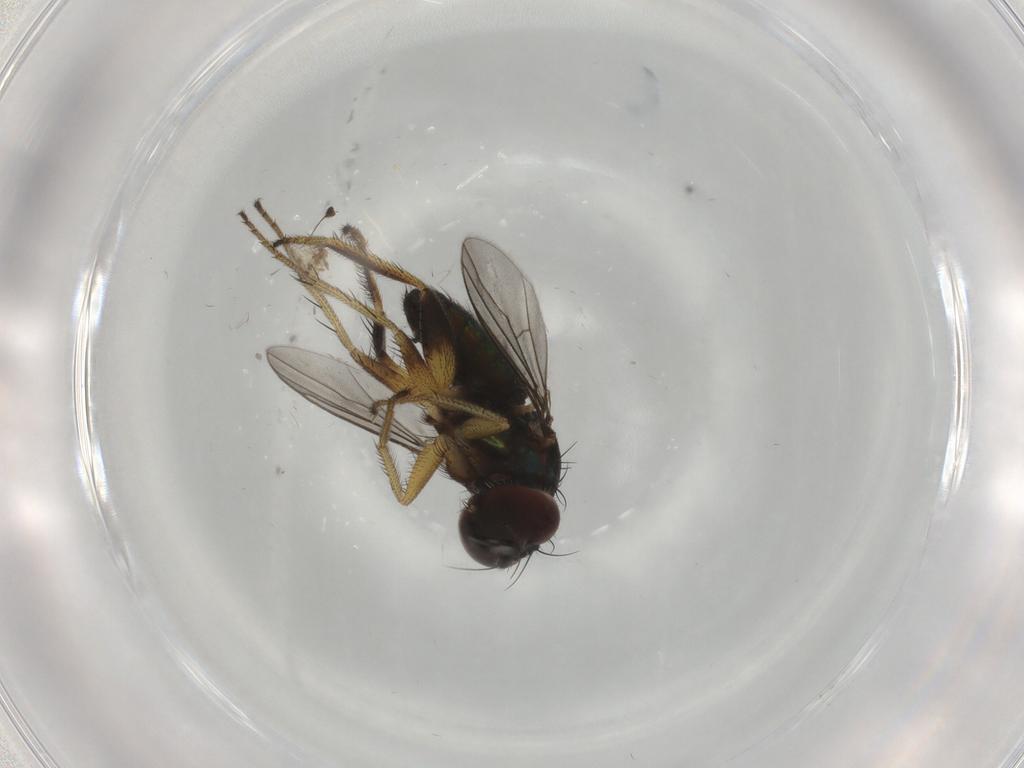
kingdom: Animalia
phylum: Arthropoda
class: Insecta
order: Diptera
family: Dolichopodidae
